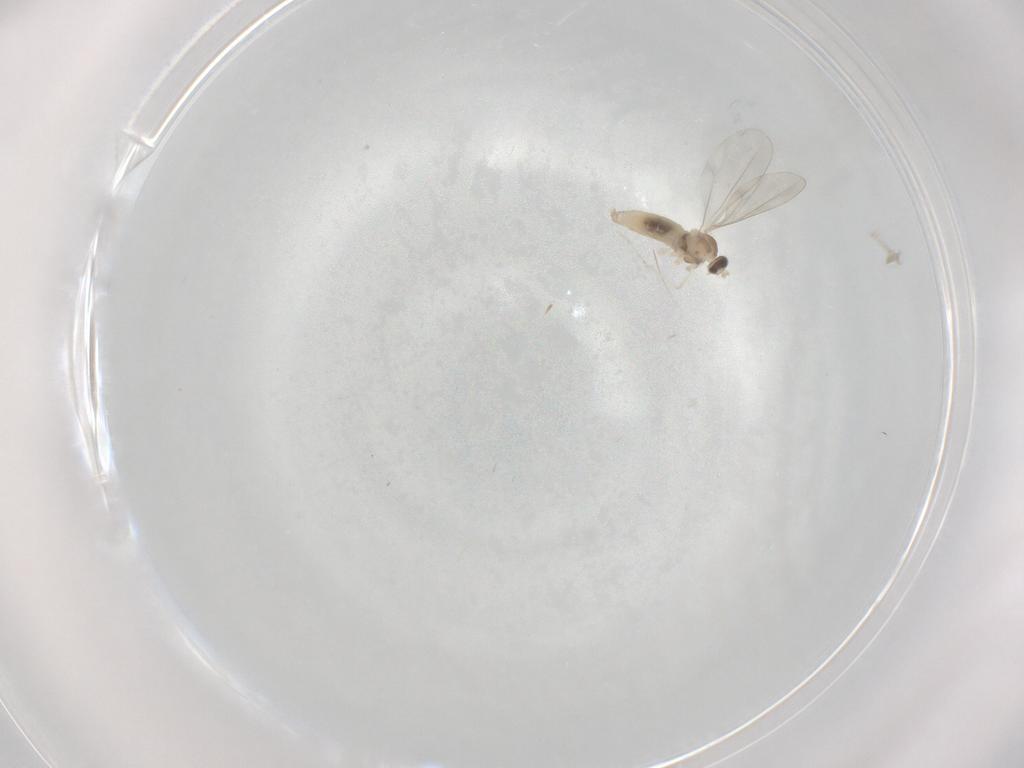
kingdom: Animalia
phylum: Arthropoda
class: Insecta
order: Diptera
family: Cecidomyiidae
